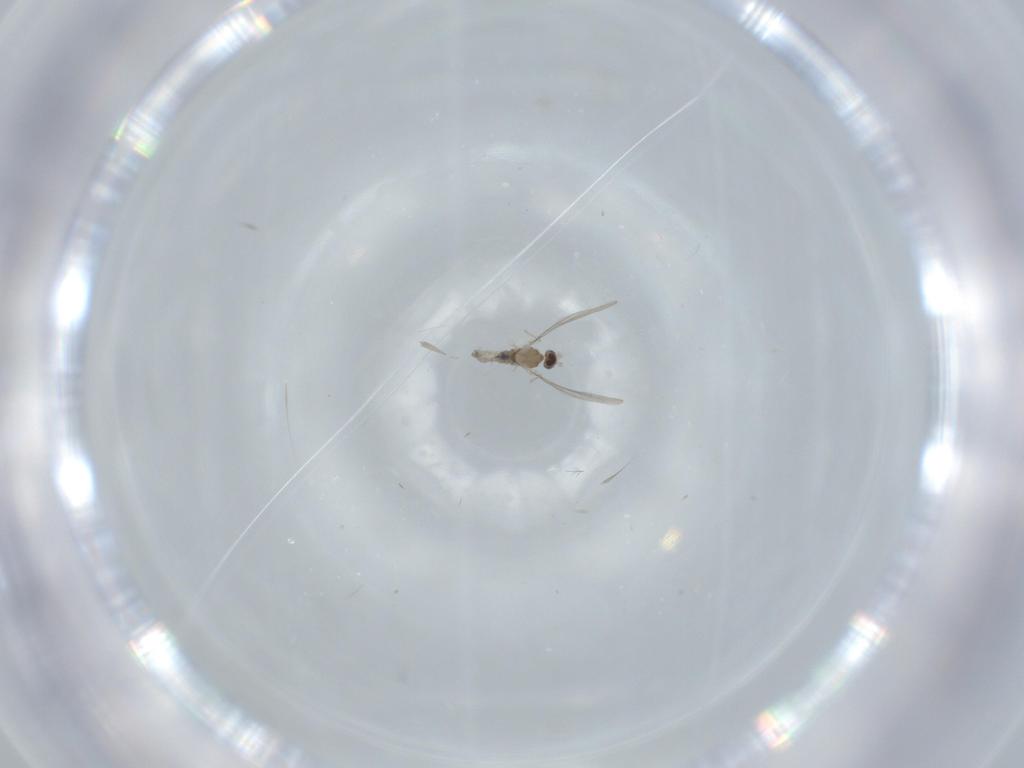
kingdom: Animalia
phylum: Arthropoda
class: Insecta
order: Diptera
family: Cecidomyiidae
